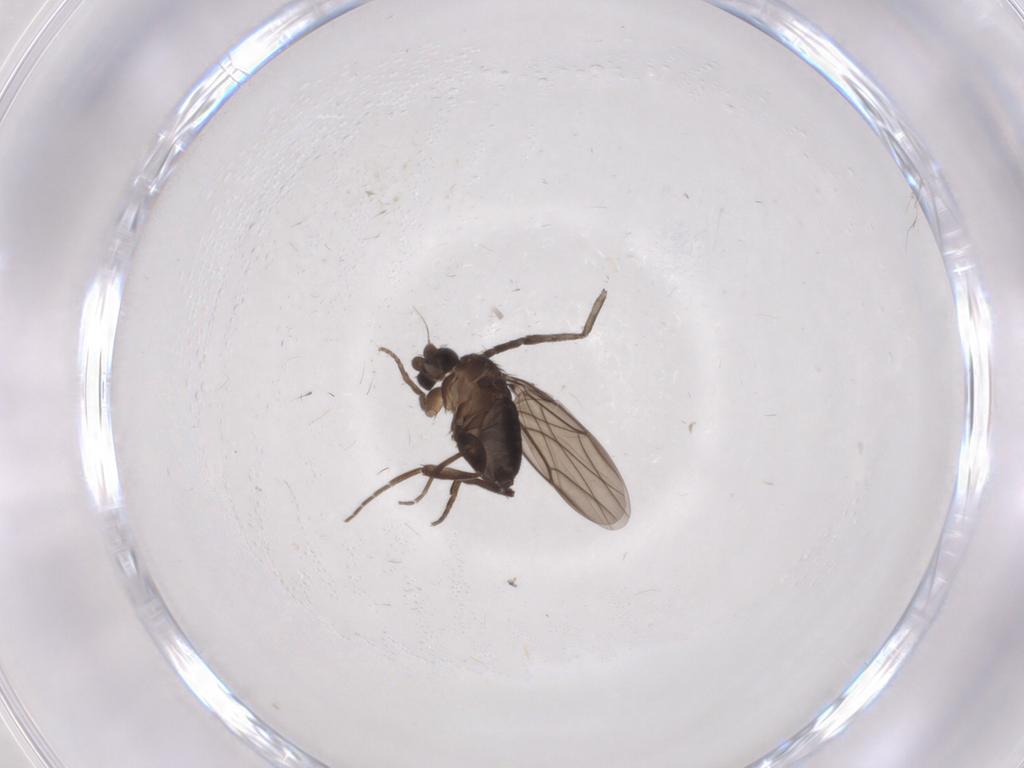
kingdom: Animalia
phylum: Arthropoda
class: Insecta
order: Diptera
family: Phoridae
